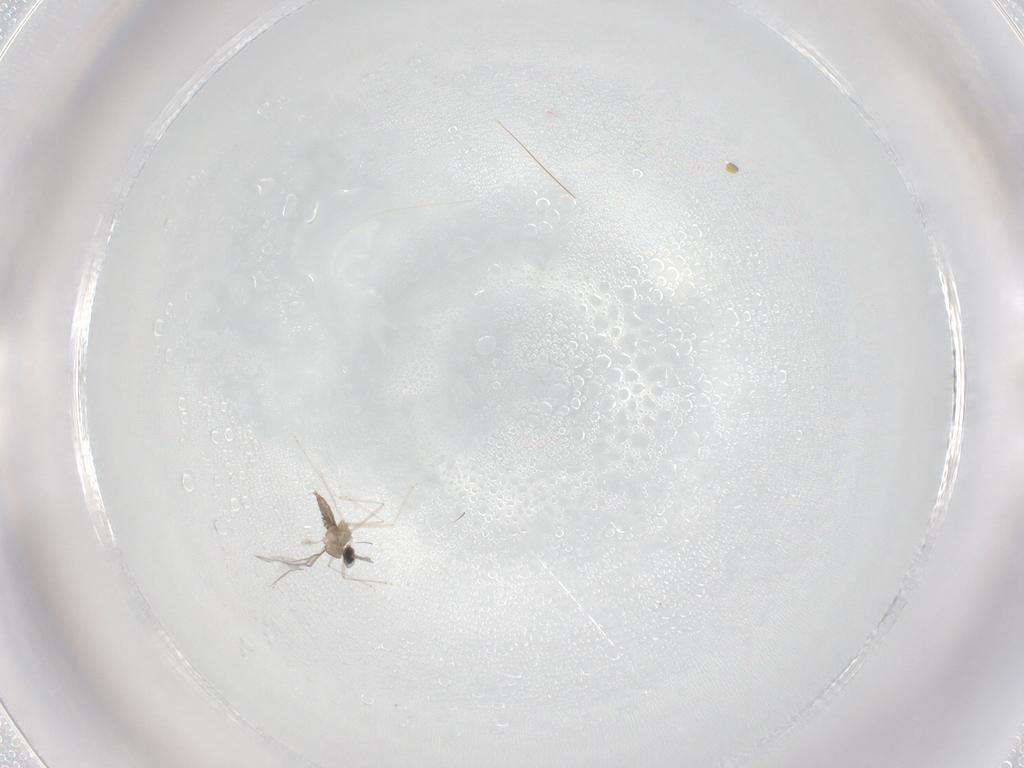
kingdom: Animalia
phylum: Arthropoda
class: Insecta
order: Diptera
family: Cecidomyiidae
